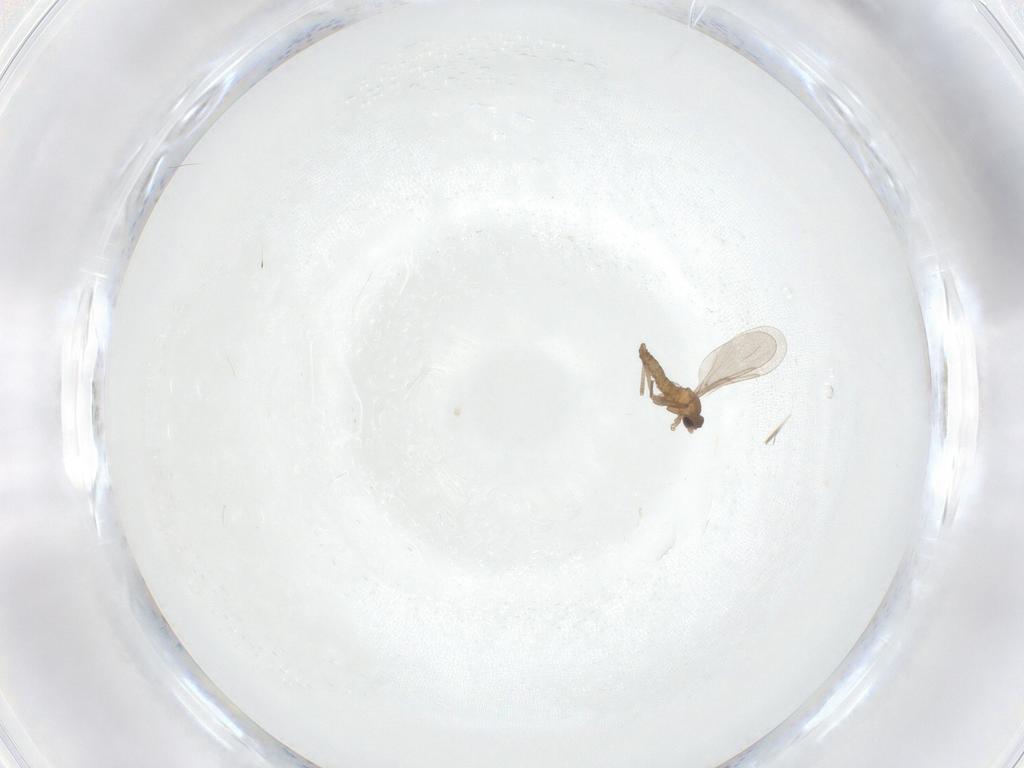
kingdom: Animalia
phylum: Arthropoda
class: Insecta
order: Diptera
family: Cecidomyiidae
